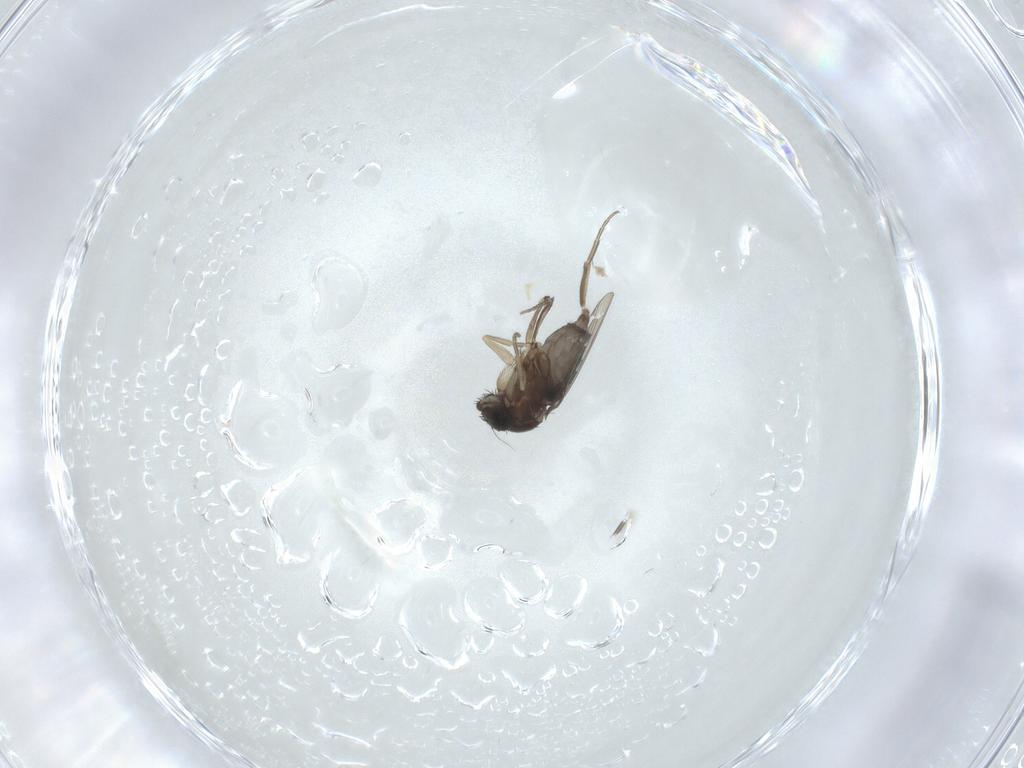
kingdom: Animalia
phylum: Arthropoda
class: Insecta
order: Diptera
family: Phoridae
